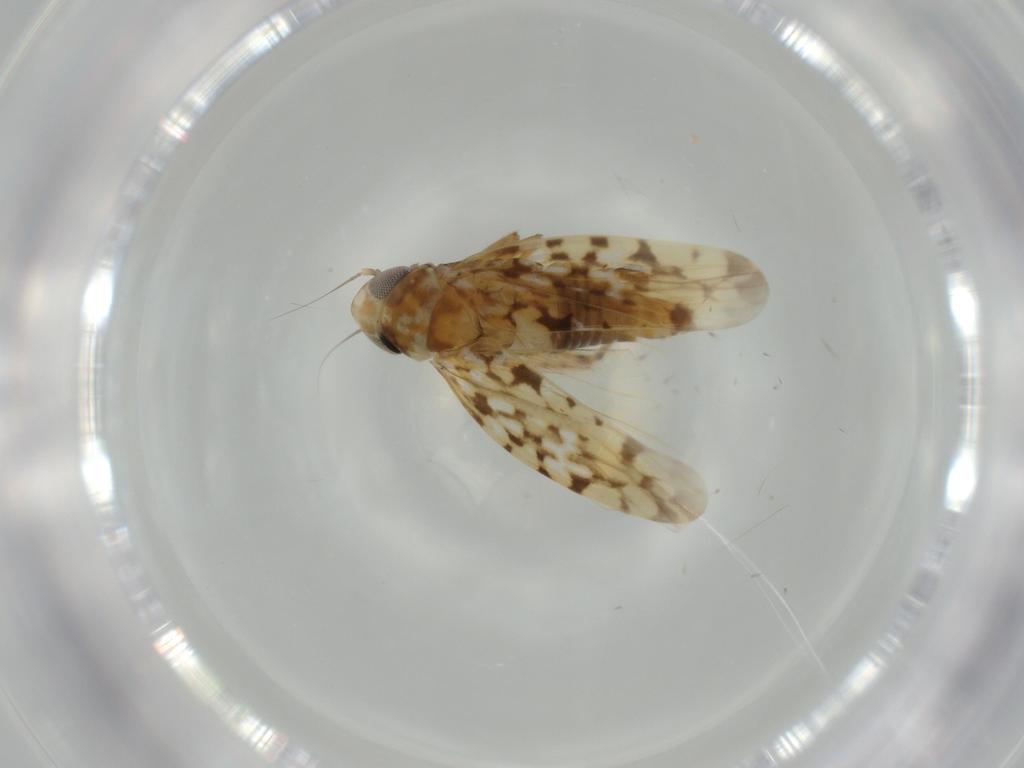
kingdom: Animalia
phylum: Arthropoda
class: Insecta
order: Hemiptera
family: Cicadellidae
